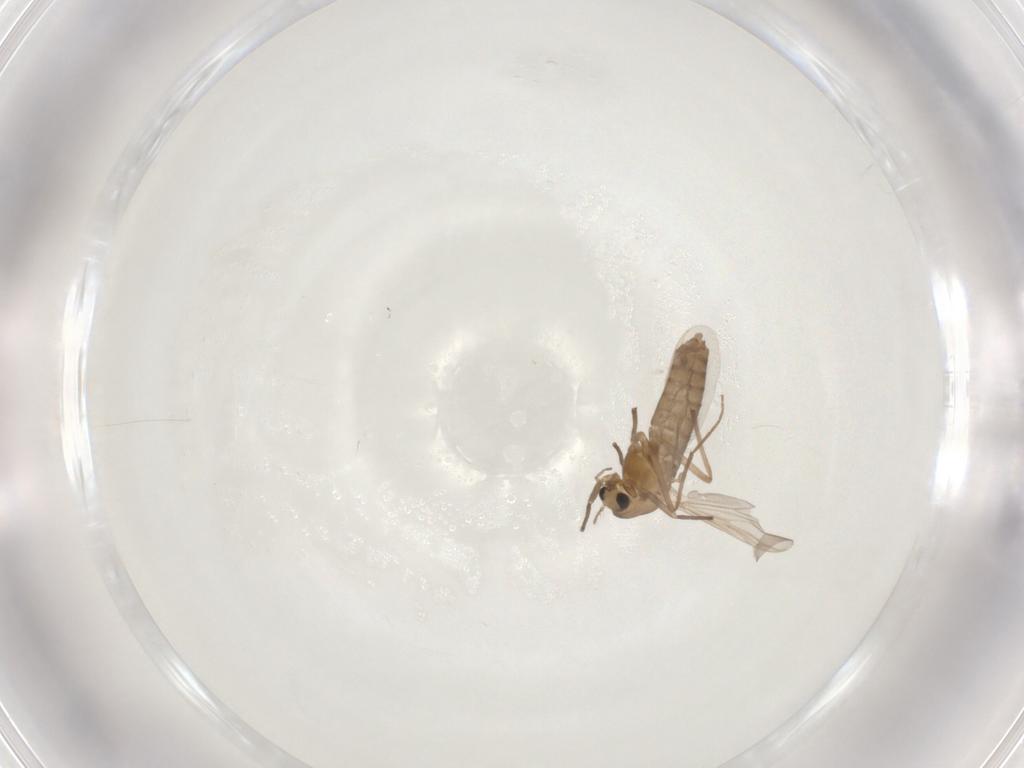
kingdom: Animalia
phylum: Arthropoda
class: Insecta
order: Diptera
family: Chironomidae
